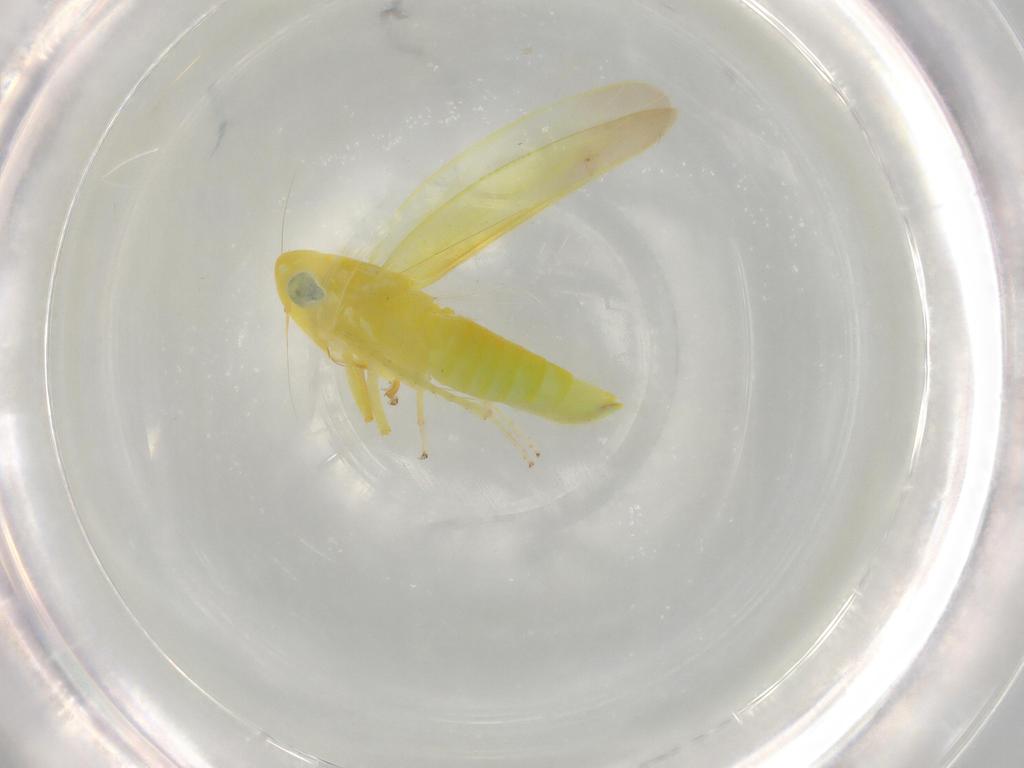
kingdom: Animalia
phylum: Arthropoda
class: Insecta
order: Hemiptera
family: Cicadellidae
